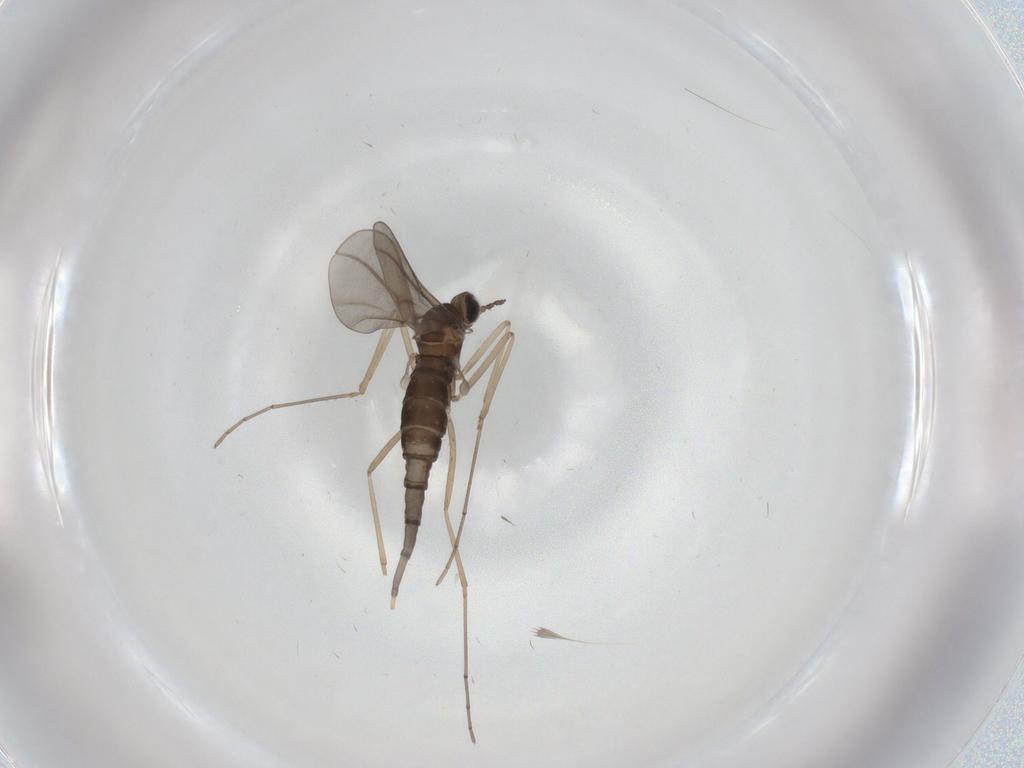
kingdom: Animalia
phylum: Arthropoda
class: Insecta
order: Diptera
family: Cecidomyiidae
